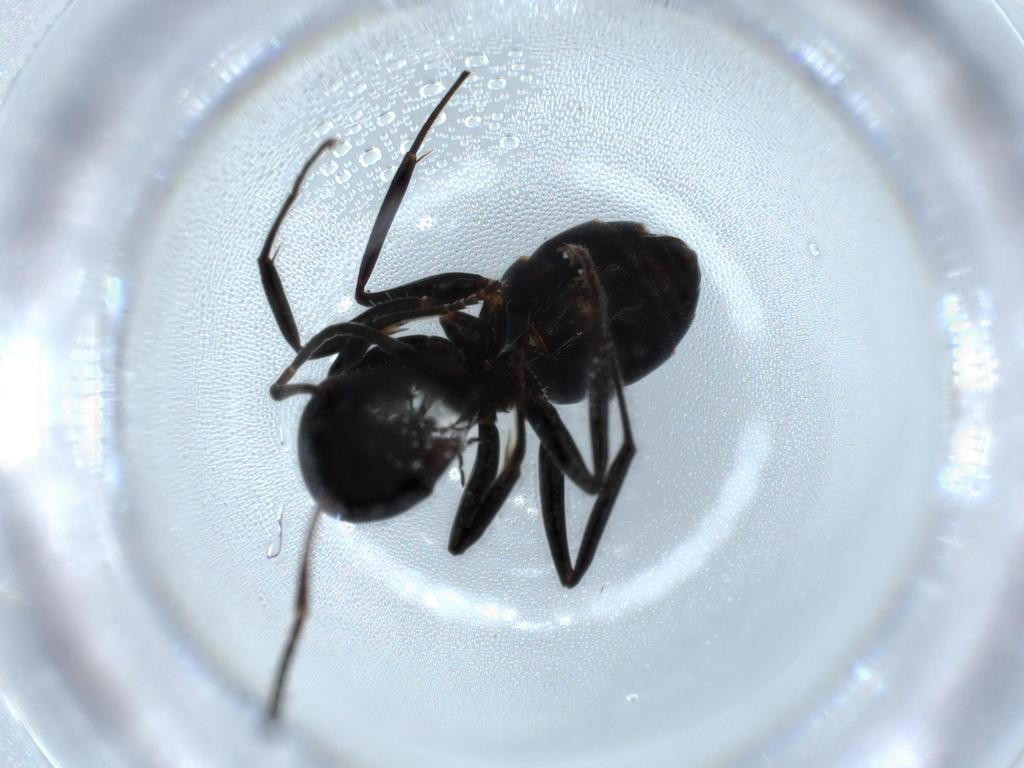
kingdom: Animalia
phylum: Arthropoda
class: Insecta
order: Hymenoptera
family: Formicidae
